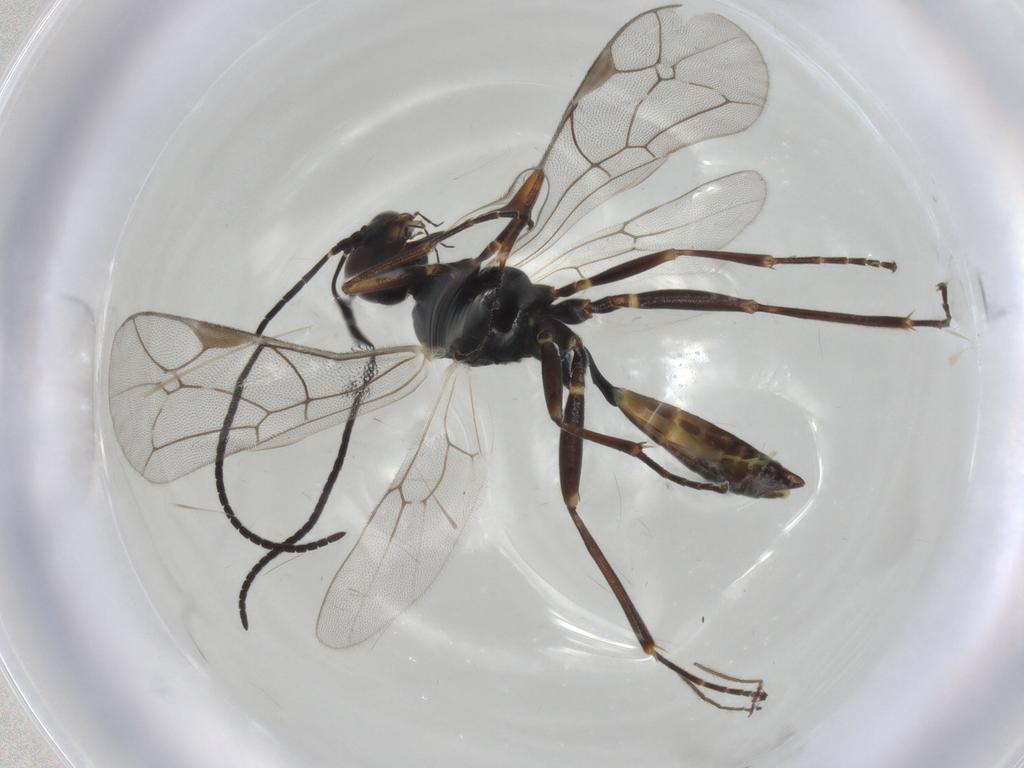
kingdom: Animalia
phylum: Arthropoda
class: Insecta
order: Hymenoptera
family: Ichneumonidae
